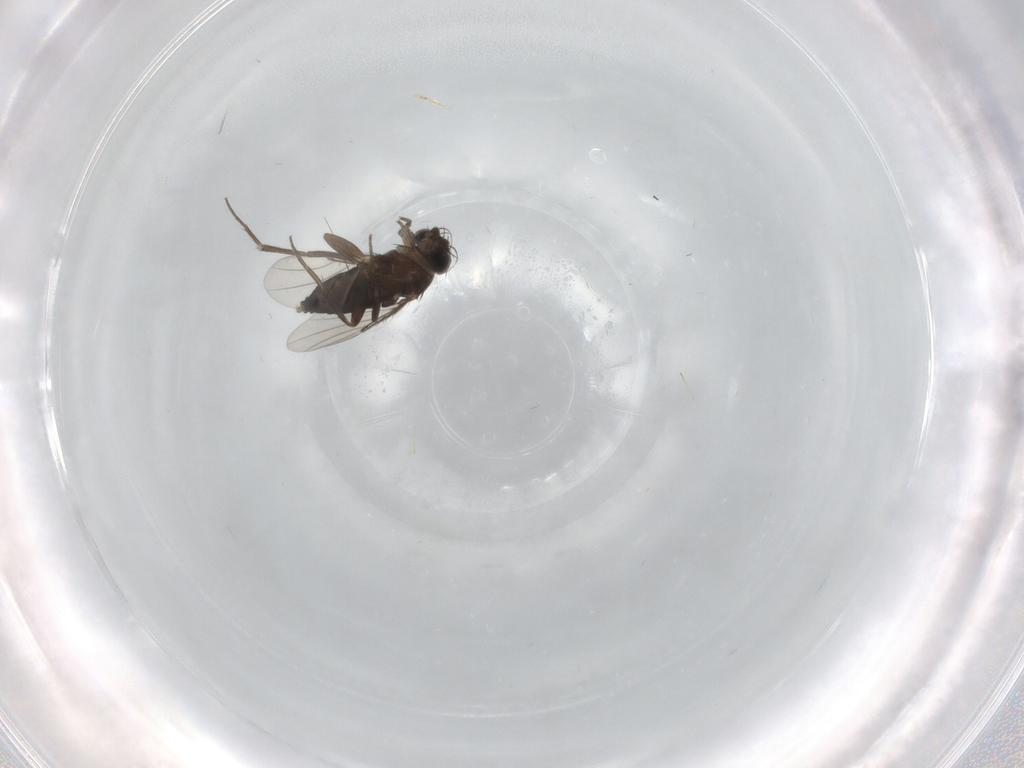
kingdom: Animalia
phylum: Arthropoda
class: Insecta
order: Diptera
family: Phoridae
